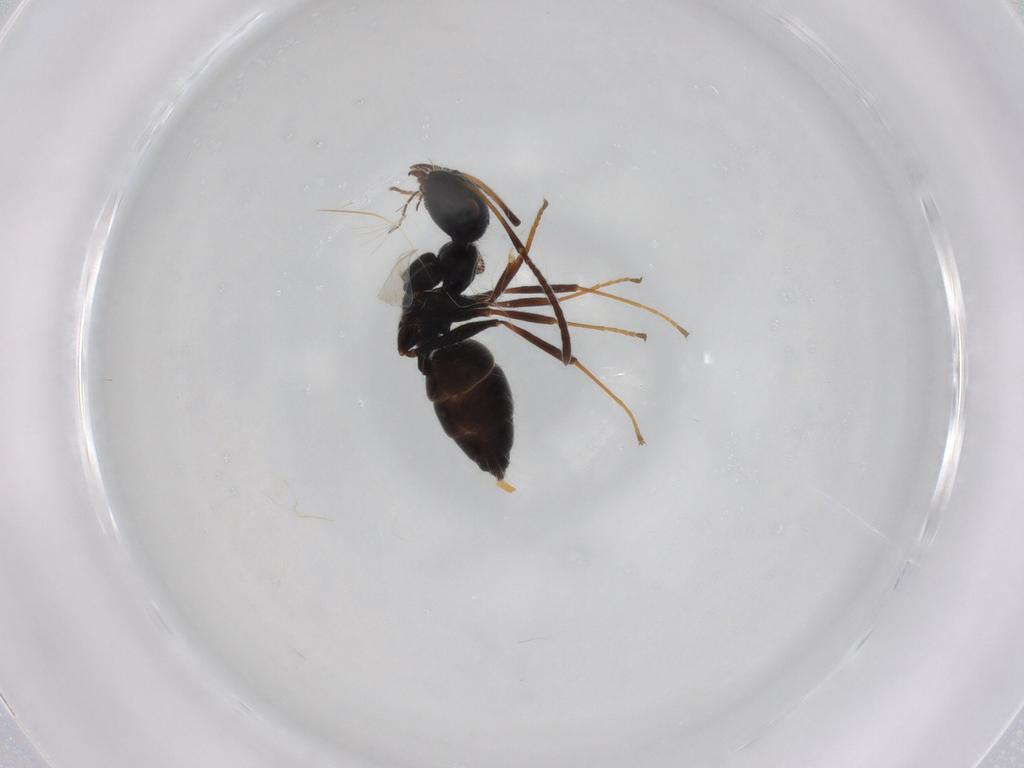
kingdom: Animalia
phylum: Arthropoda
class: Insecta
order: Hymenoptera
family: Formicidae
